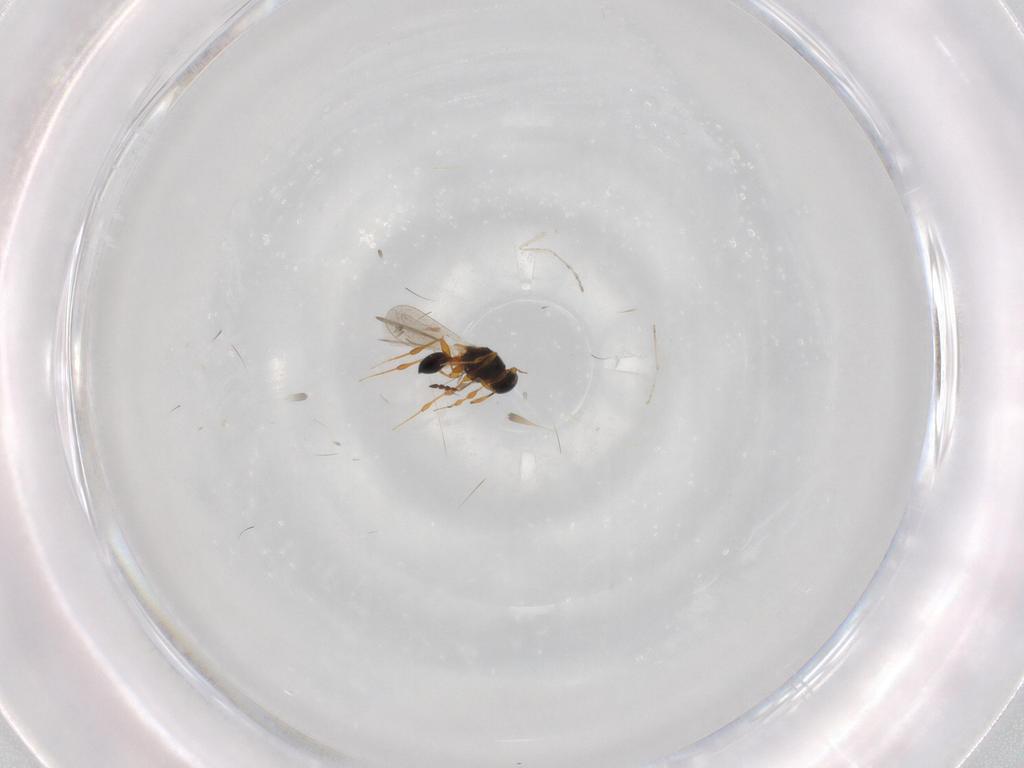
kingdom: Animalia
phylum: Arthropoda
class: Insecta
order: Hymenoptera
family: Platygastridae
